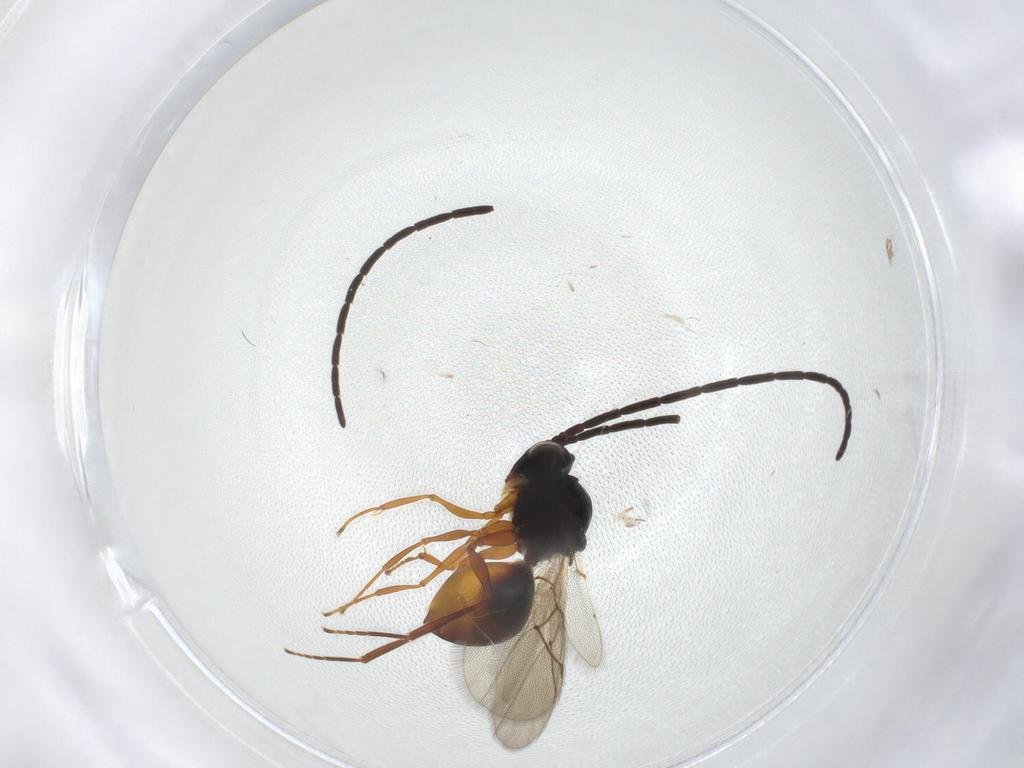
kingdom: Animalia
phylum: Arthropoda
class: Insecta
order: Hymenoptera
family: Figitidae
